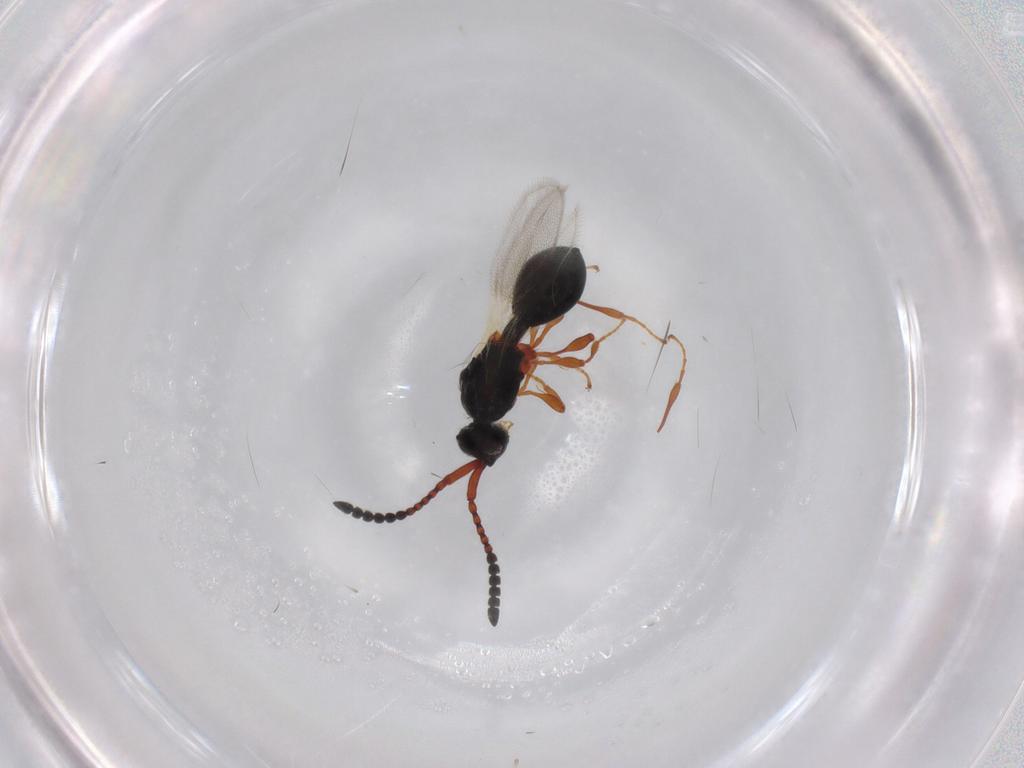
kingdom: Animalia
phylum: Arthropoda
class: Insecta
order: Hymenoptera
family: Diapriidae
